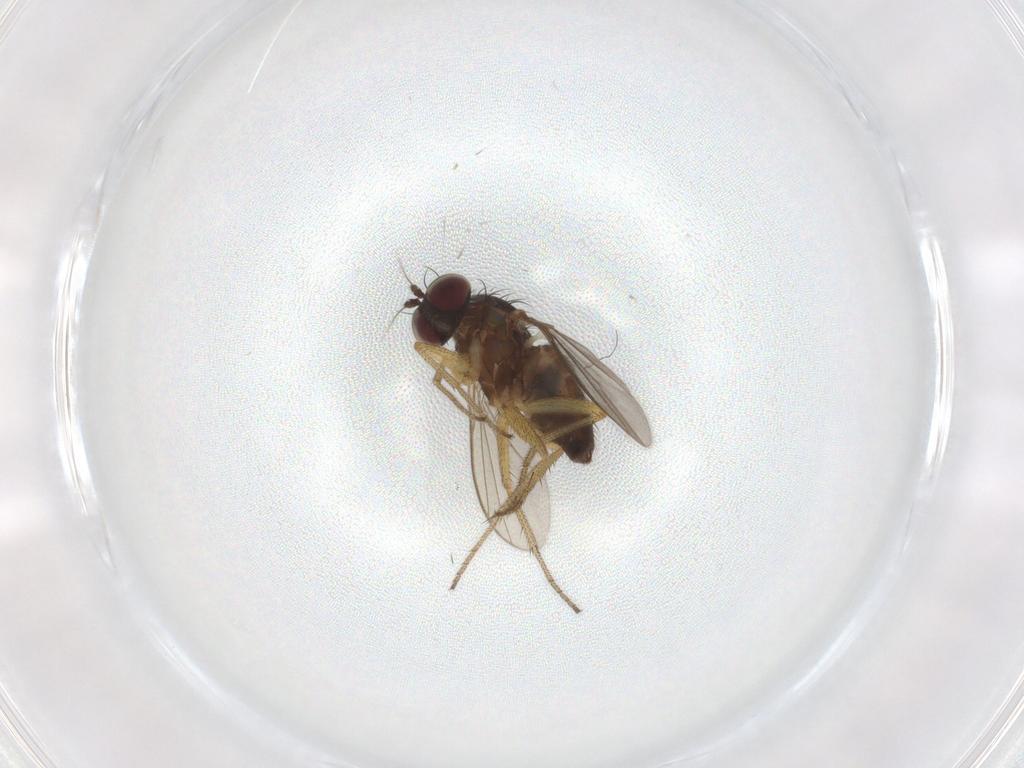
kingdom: Animalia
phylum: Arthropoda
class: Insecta
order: Diptera
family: Dolichopodidae
